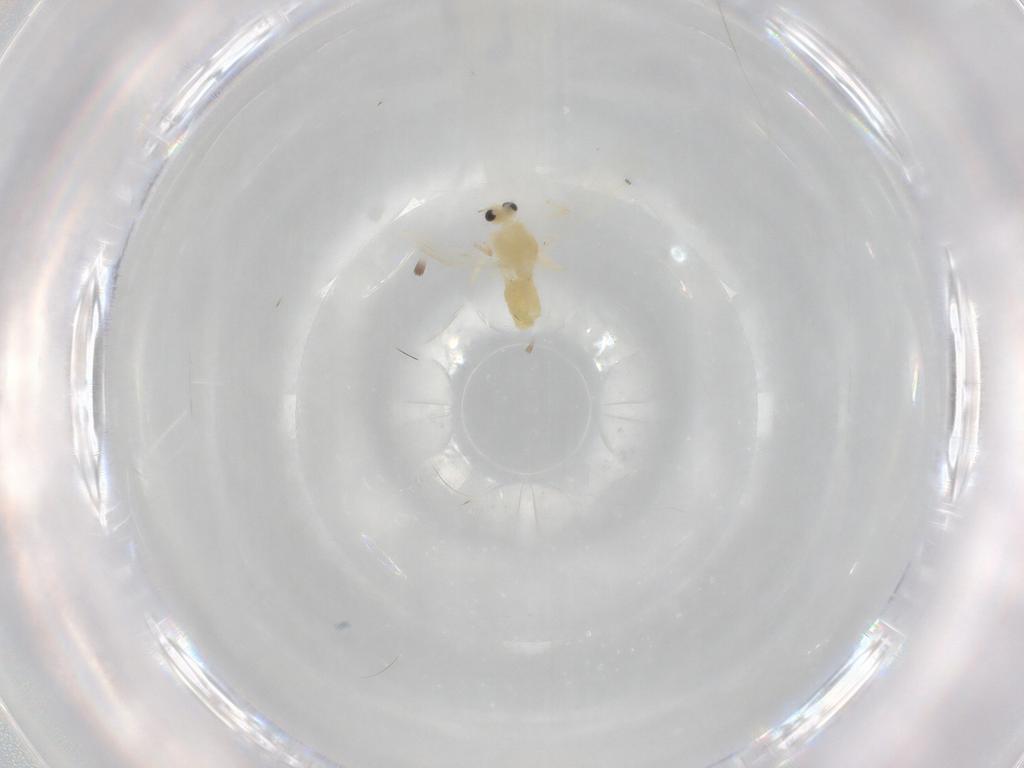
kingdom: Animalia
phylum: Arthropoda
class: Insecta
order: Diptera
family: Chironomidae
